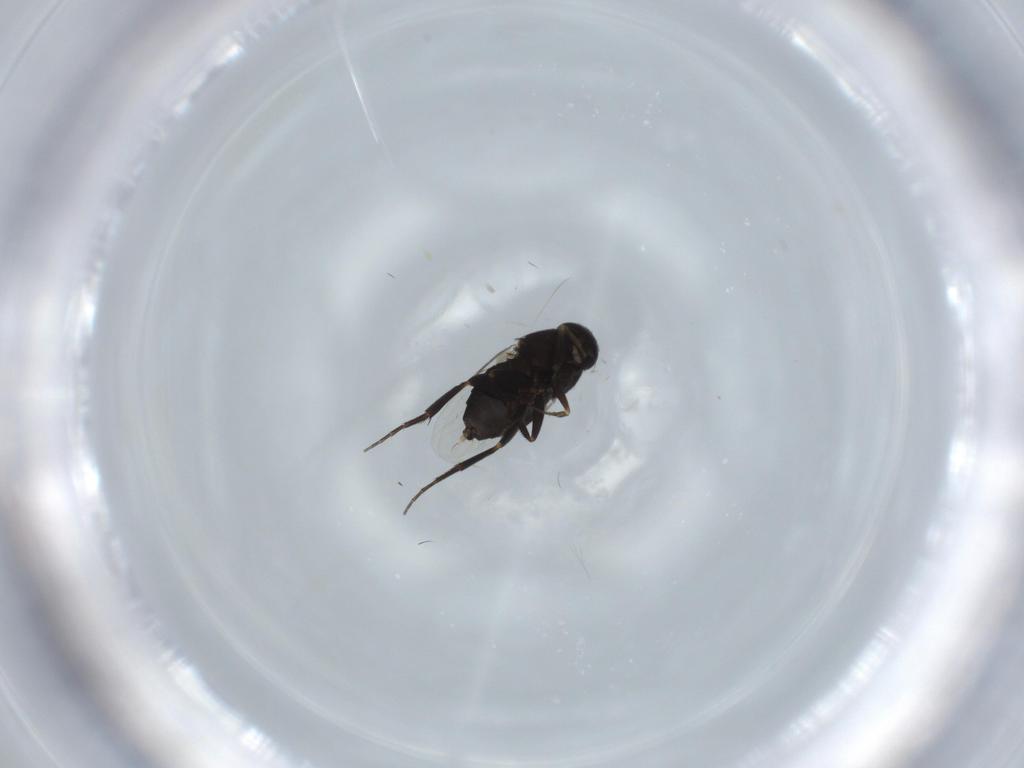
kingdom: Animalia
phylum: Arthropoda
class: Insecta
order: Diptera
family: Phoridae
